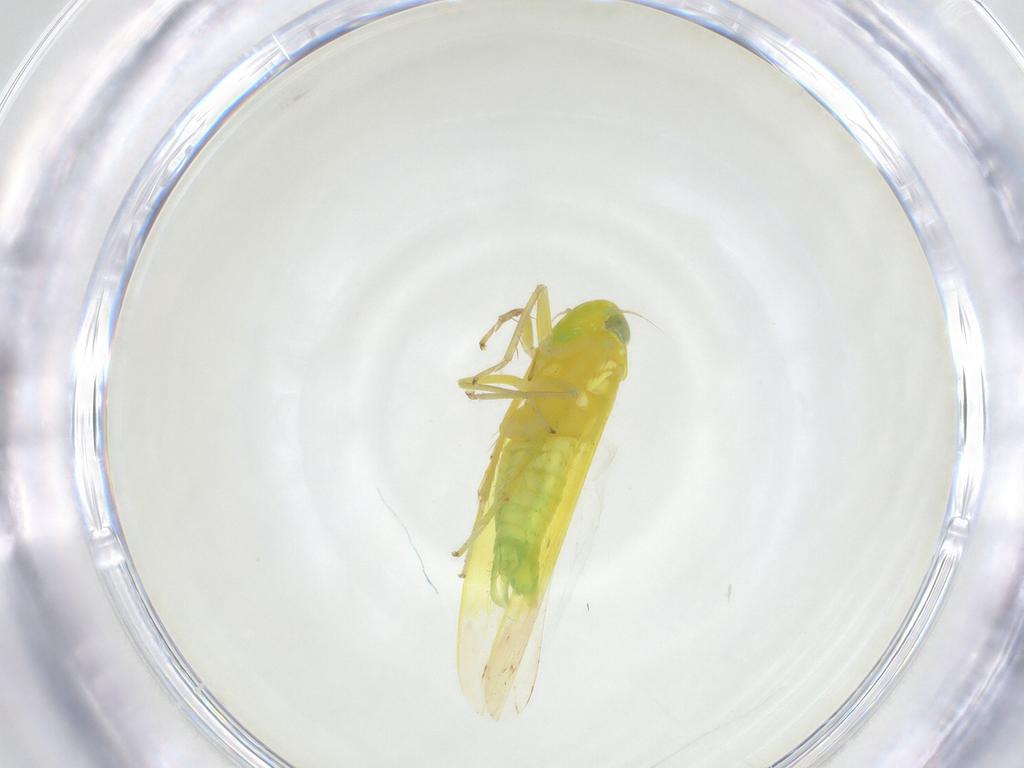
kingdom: Animalia
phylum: Arthropoda
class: Insecta
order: Hemiptera
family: Cicadellidae
